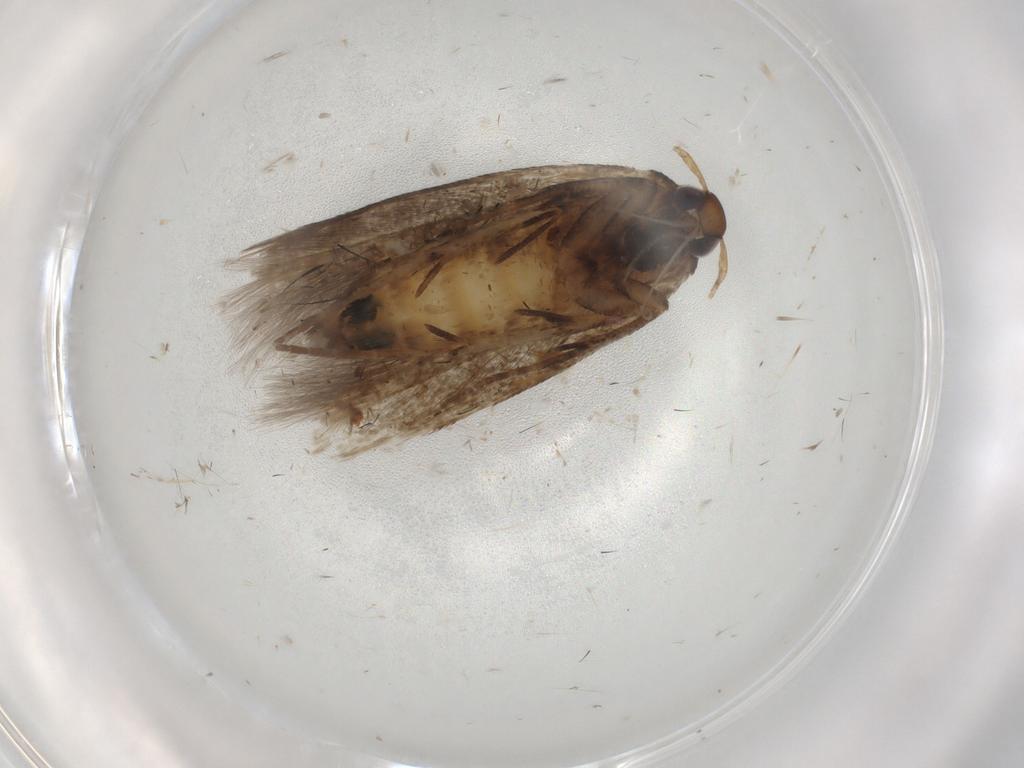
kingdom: Animalia
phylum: Arthropoda
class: Insecta
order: Lepidoptera
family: Cosmopterigidae
